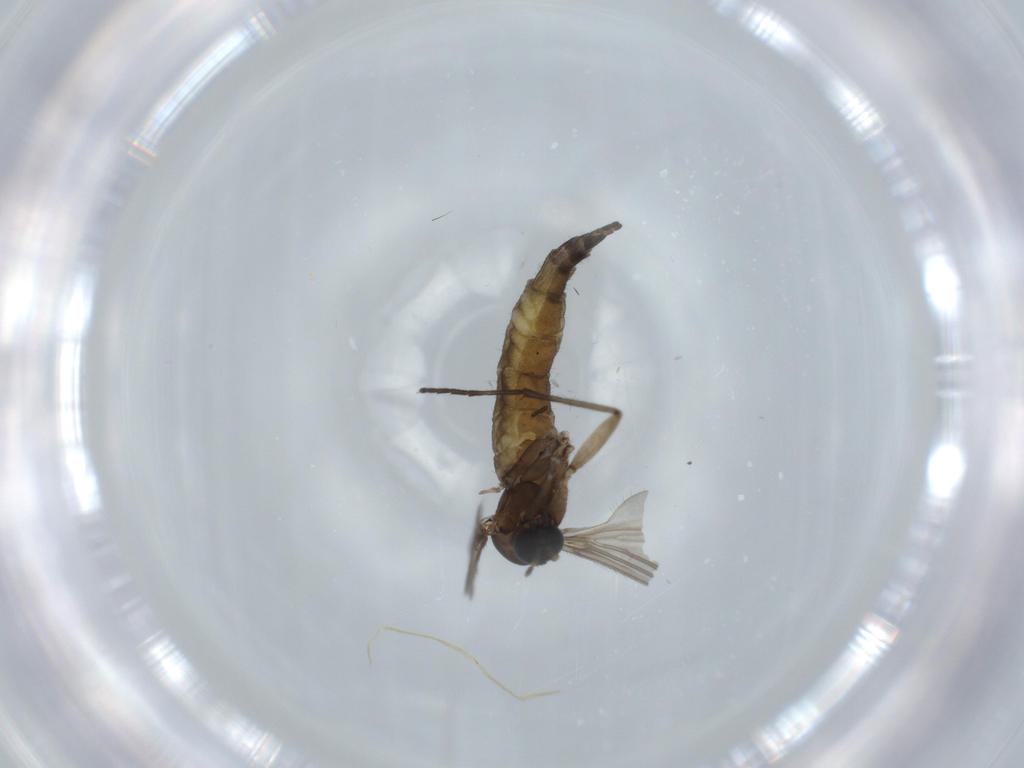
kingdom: Animalia
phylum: Arthropoda
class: Insecta
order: Diptera
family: Sciaridae
